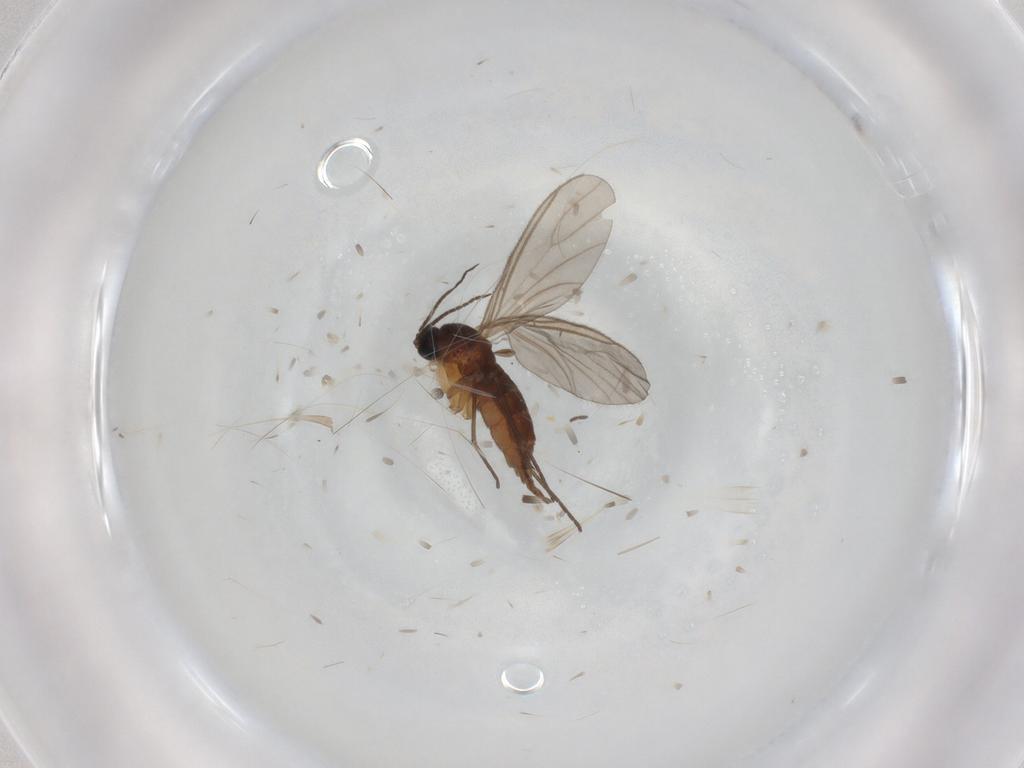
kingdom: Animalia
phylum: Arthropoda
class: Insecta
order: Diptera
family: Sciaridae
